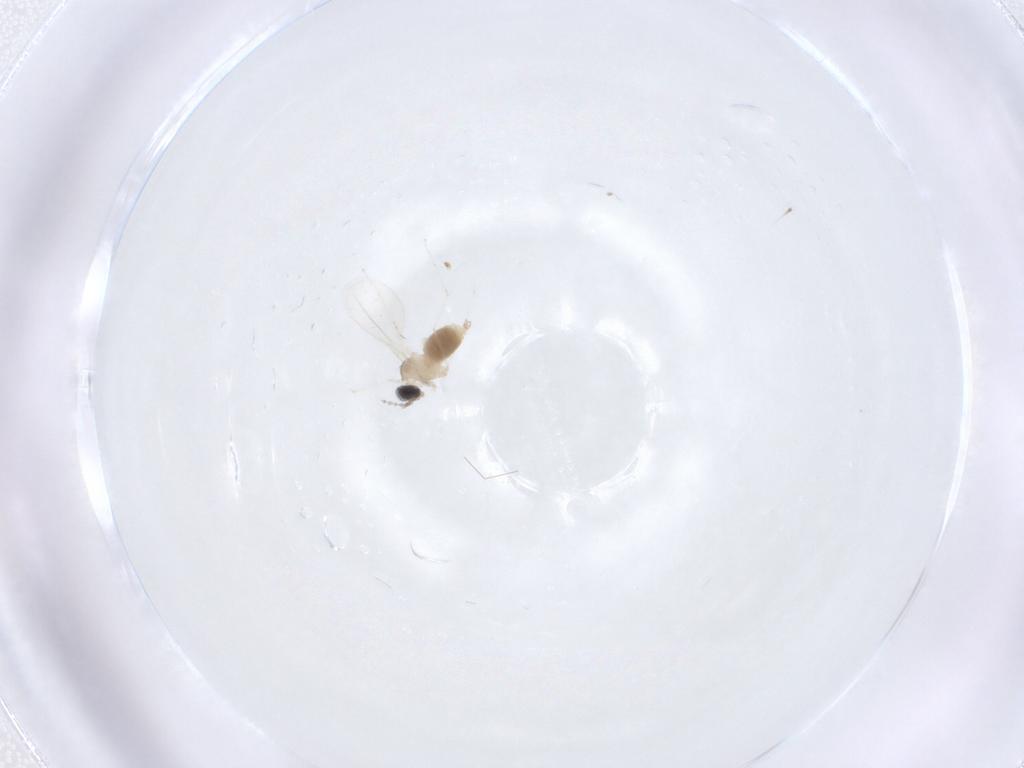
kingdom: Animalia
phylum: Arthropoda
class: Insecta
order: Diptera
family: Cecidomyiidae
